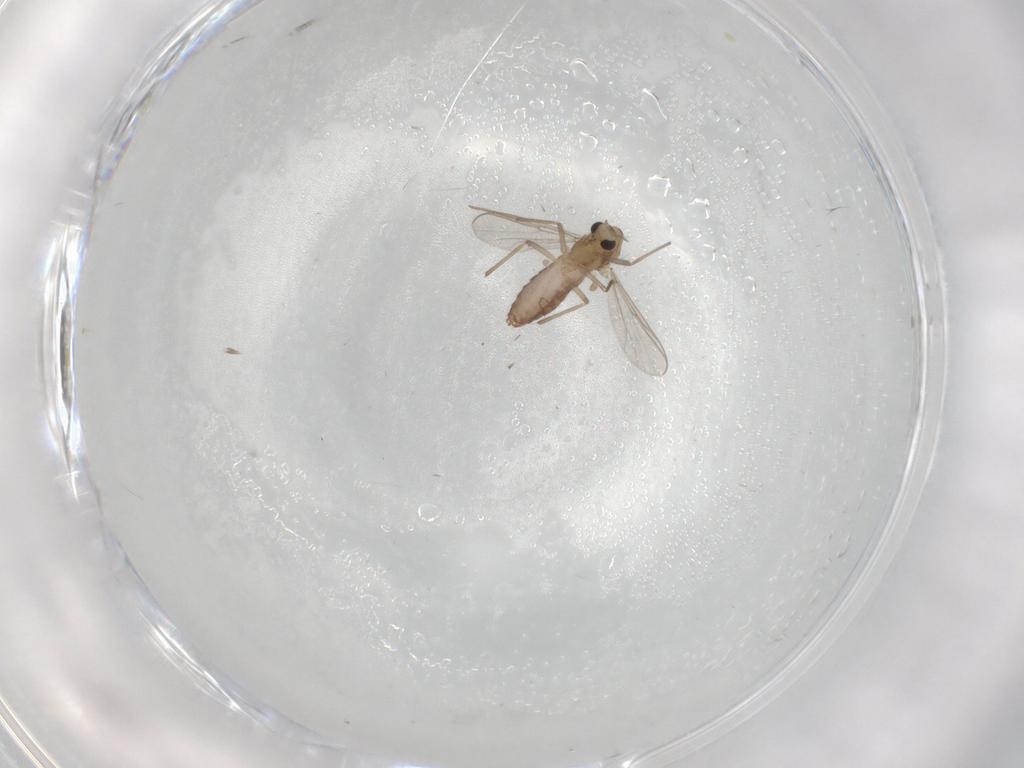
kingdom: Animalia
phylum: Arthropoda
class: Insecta
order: Diptera
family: Chironomidae
